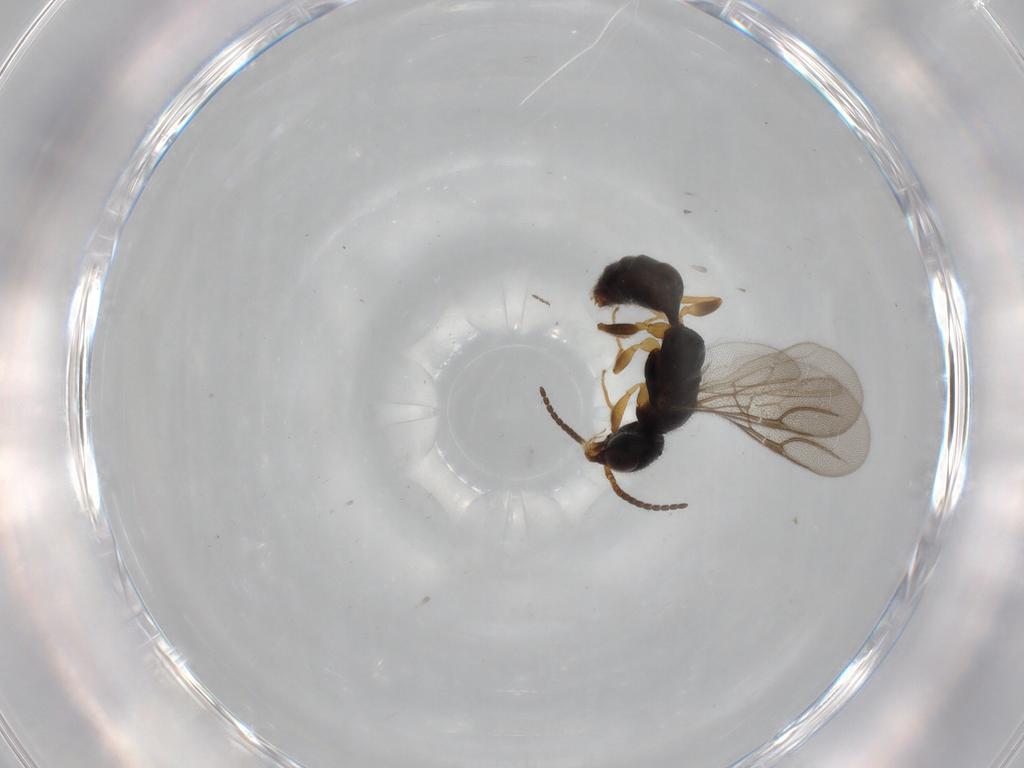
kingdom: Animalia
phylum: Arthropoda
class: Insecta
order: Hymenoptera
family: Bethylidae
